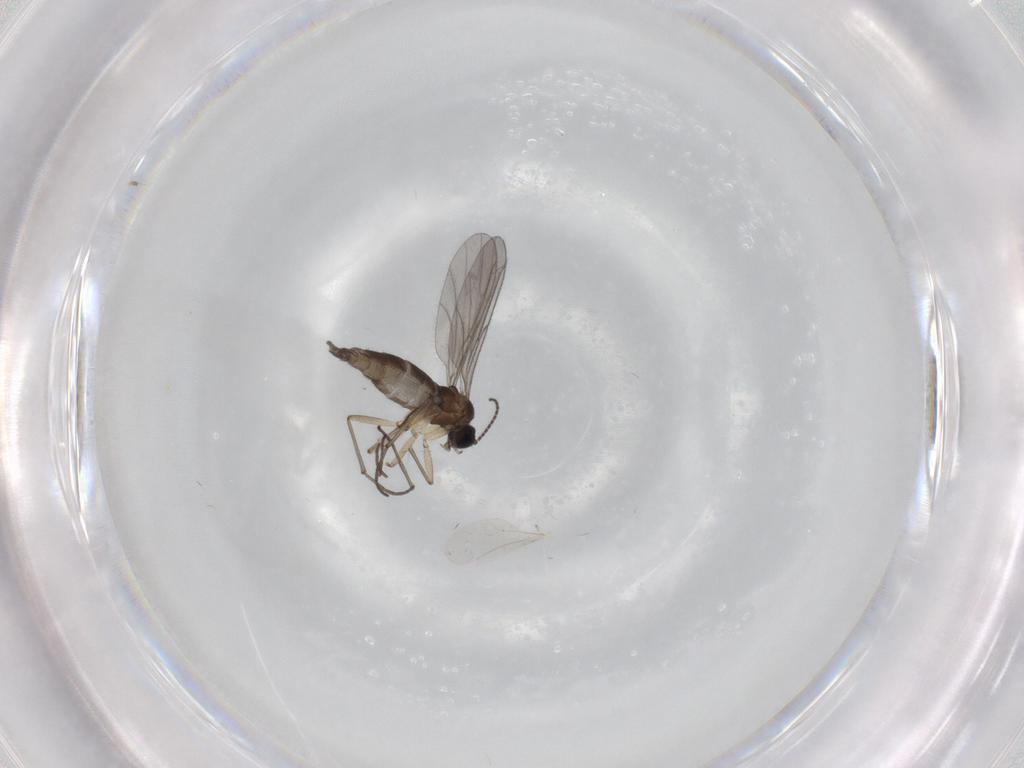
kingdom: Animalia
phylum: Arthropoda
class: Insecta
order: Diptera
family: Sciaridae
